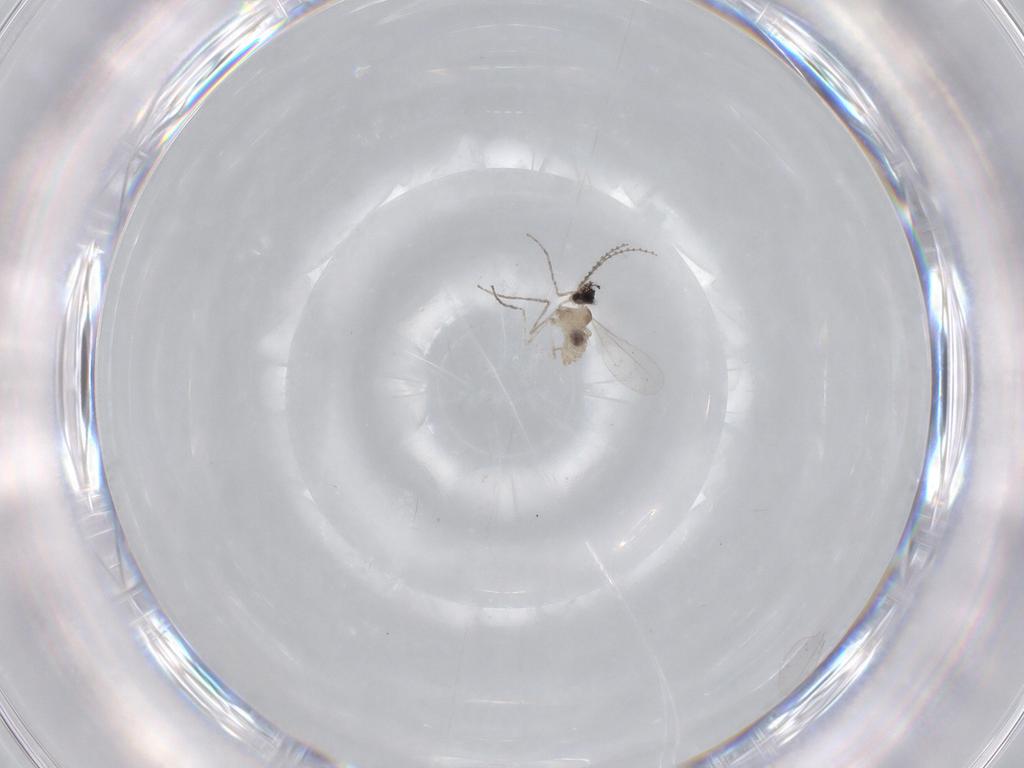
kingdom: Animalia
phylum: Arthropoda
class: Insecta
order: Diptera
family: Cecidomyiidae
